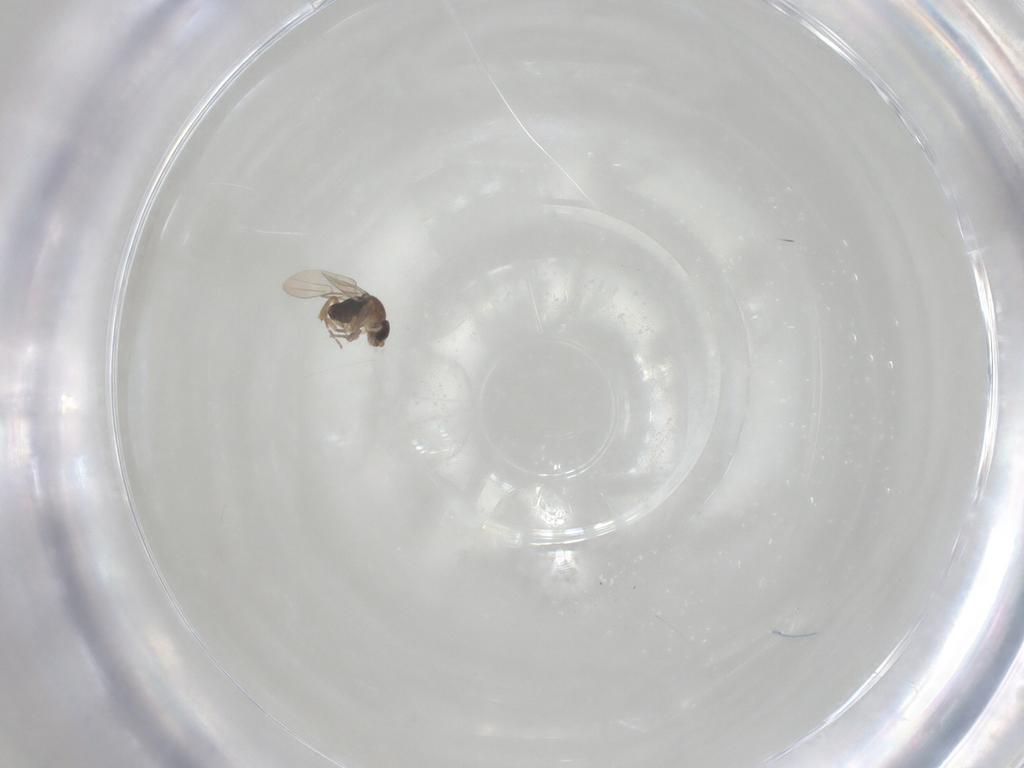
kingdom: Animalia
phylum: Arthropoda
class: Insecta
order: Diptera
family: Phoridae
